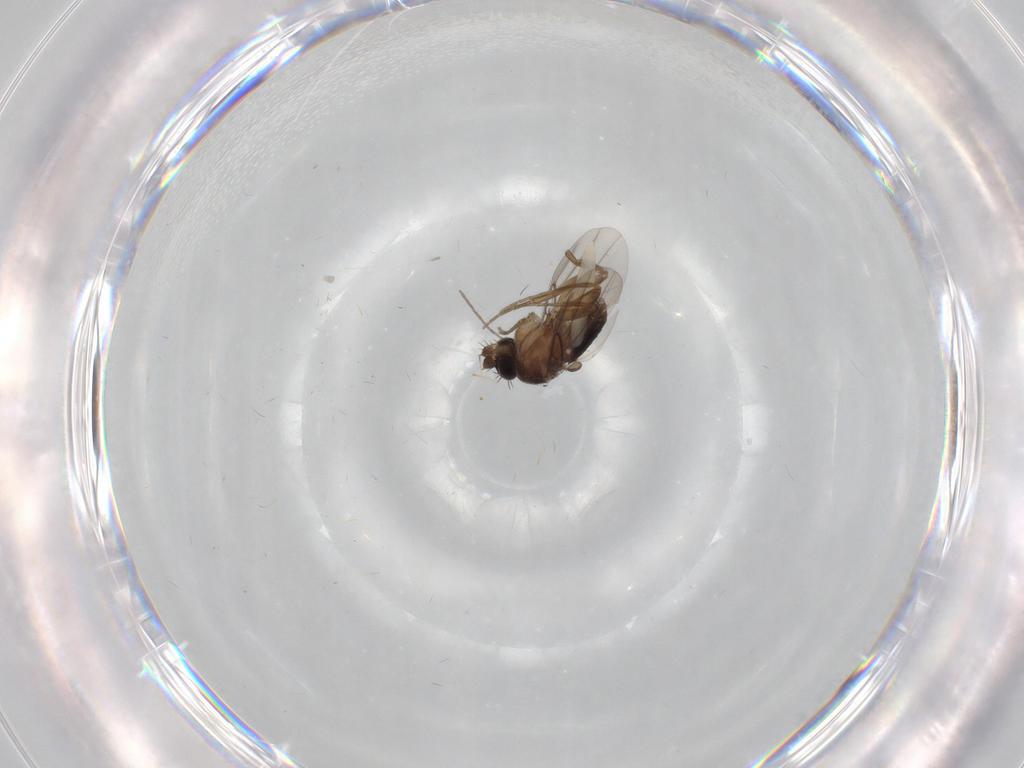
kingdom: Animalia
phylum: Arthropoda
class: Insecta
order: Diptera
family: Phoridae
